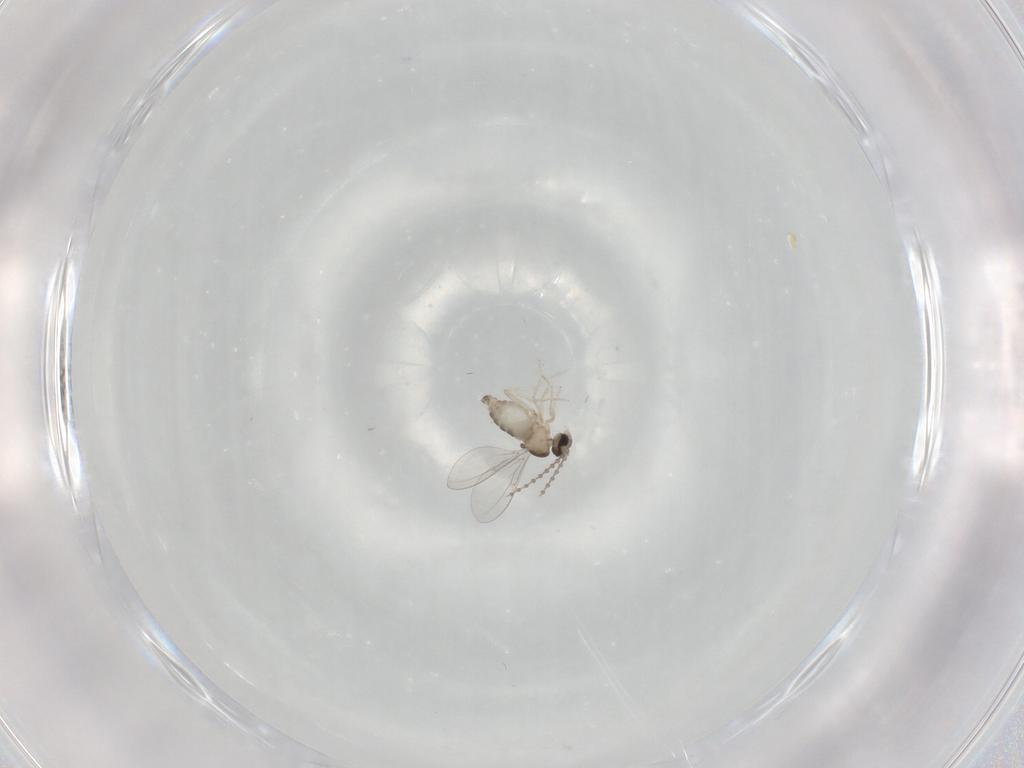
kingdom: Animalia
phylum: Arthropoda
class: Insecta
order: Diptera
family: Cecidomyiidae
